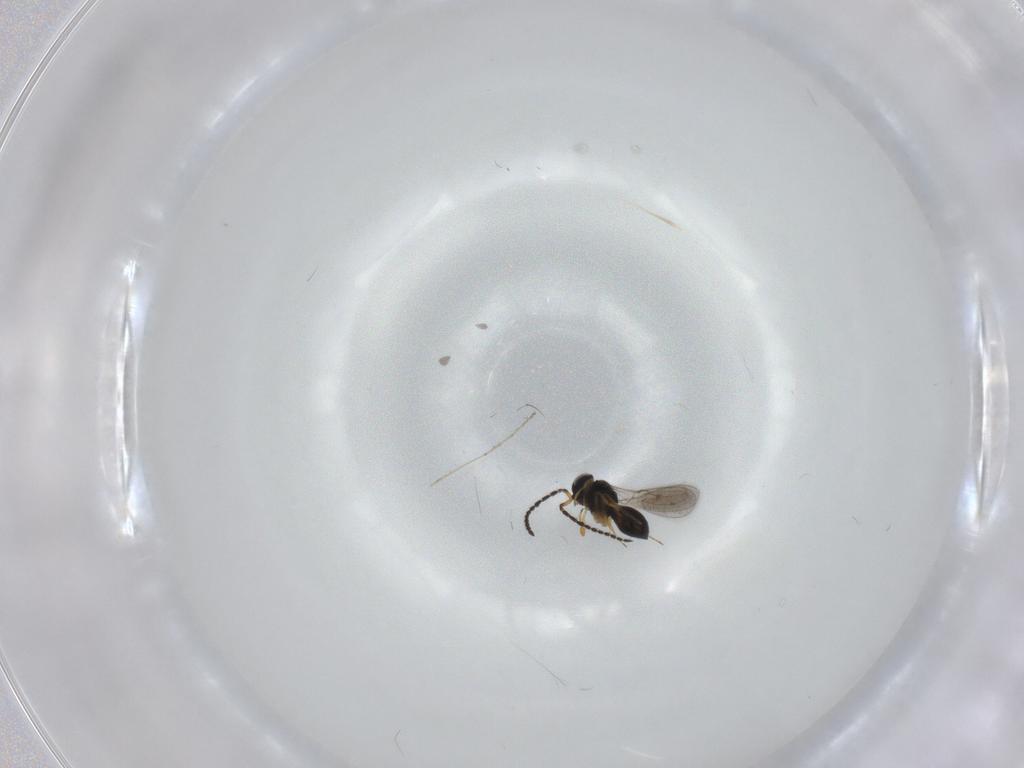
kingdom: Animalia
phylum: Arthropoda
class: Insecta
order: Hymenoptera
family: Scelionidae
